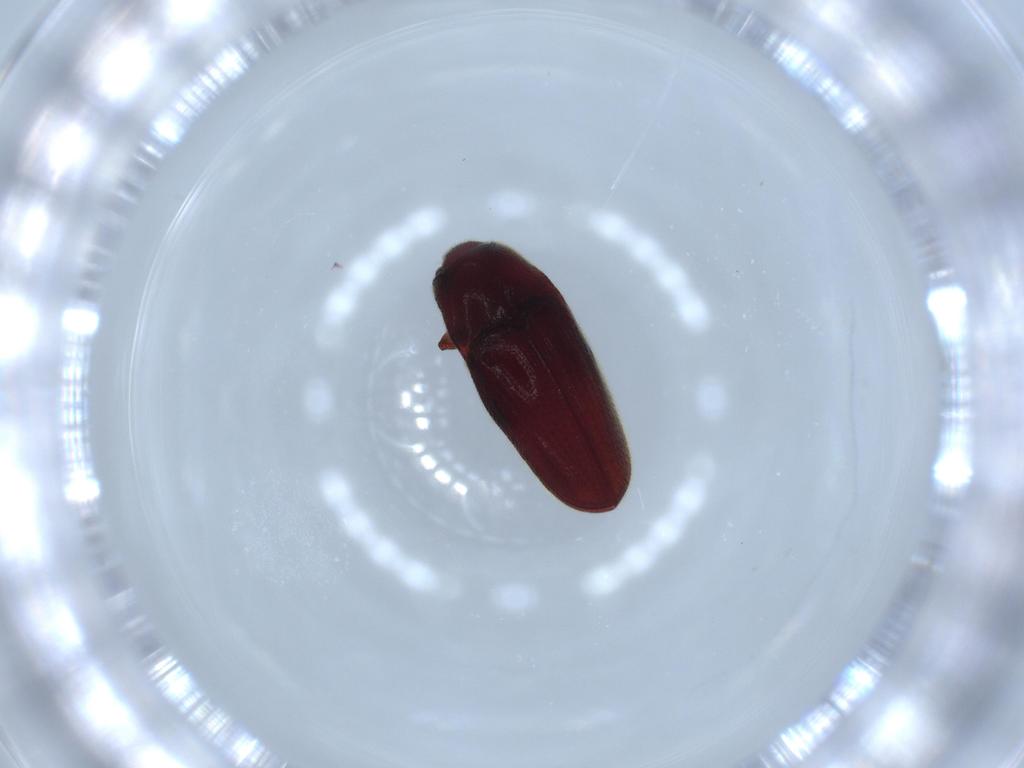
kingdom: Animalia
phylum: Arthropoda
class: Insecta
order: Coleoptera
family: Throscidae
